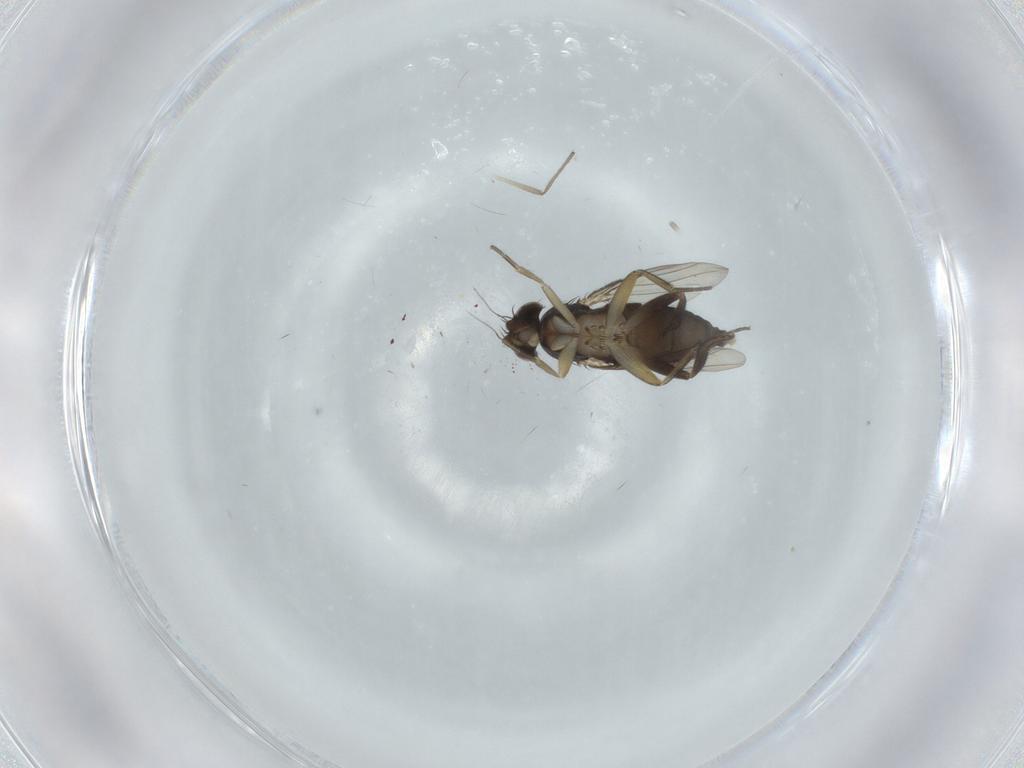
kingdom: Animalia
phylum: Arthropoda
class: Insecta
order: Diptera
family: Phoridae
